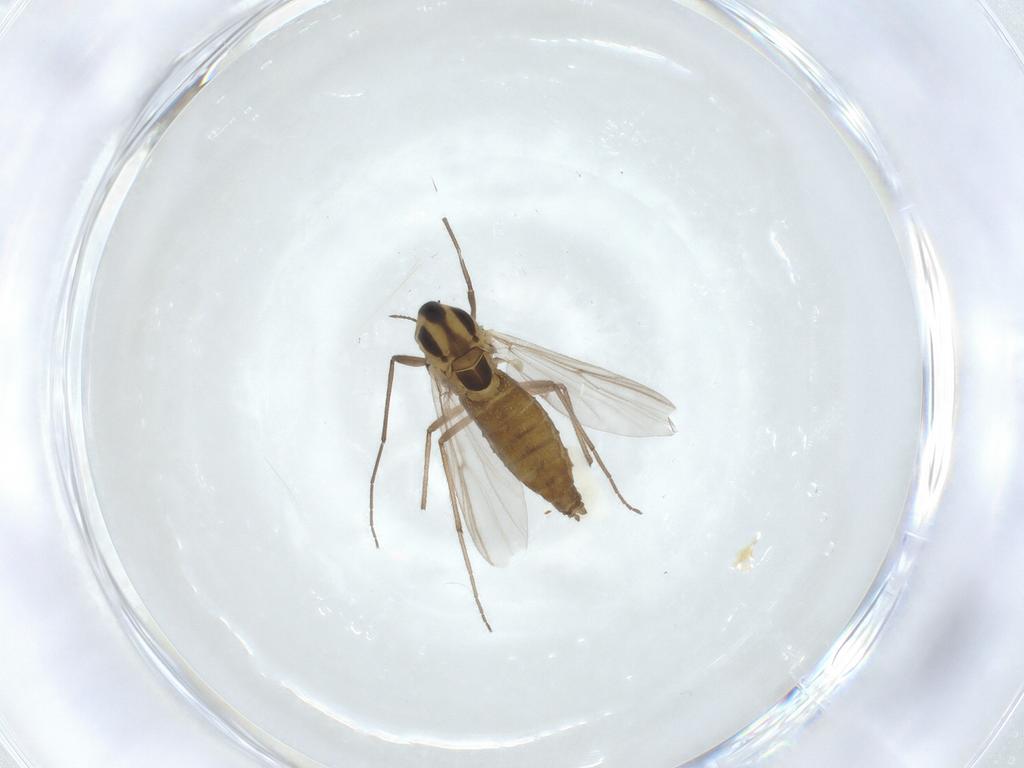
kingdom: Animalia
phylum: Arthropoda
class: Insecta
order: Diptera
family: Chironomidae
